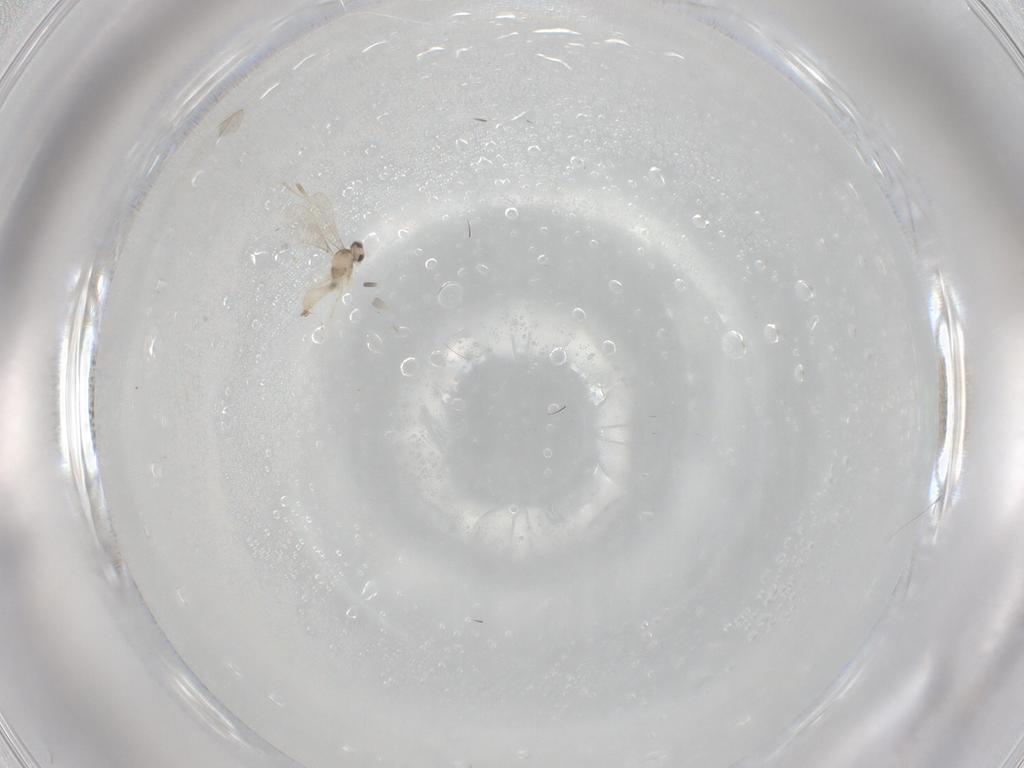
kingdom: Animalia
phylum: Arthropoda
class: Insecta
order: Diptera
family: Cecidomyiidae
